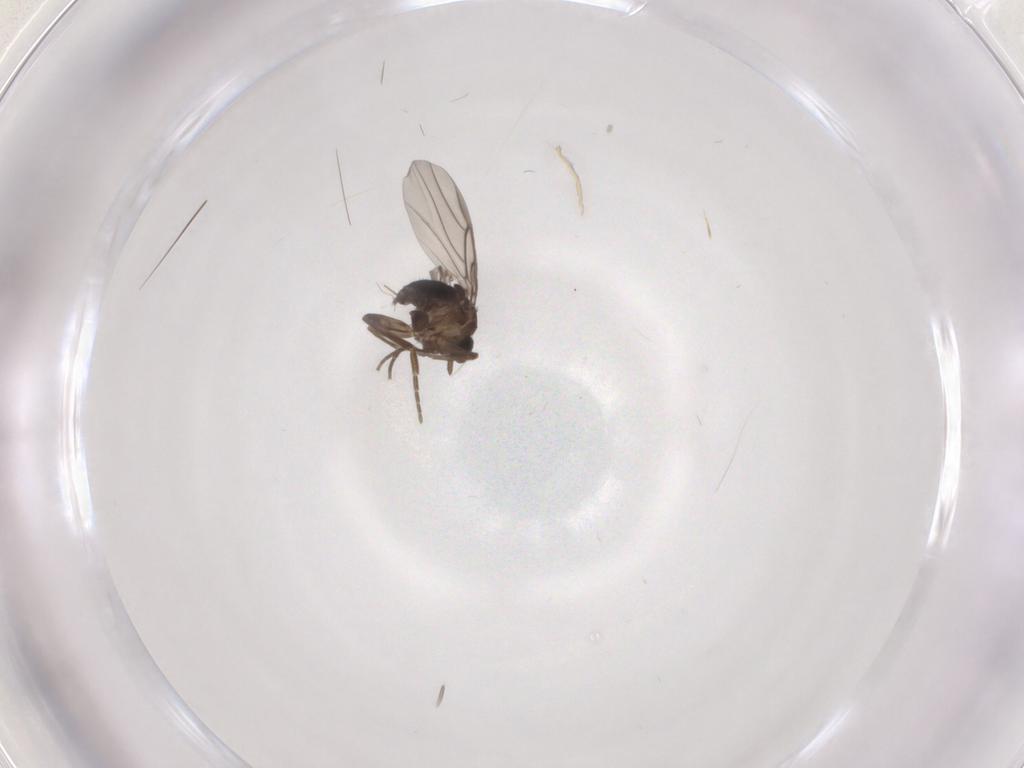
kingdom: Animalia
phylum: Arthropoda
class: Insecta
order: Diptera
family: Phoridae
